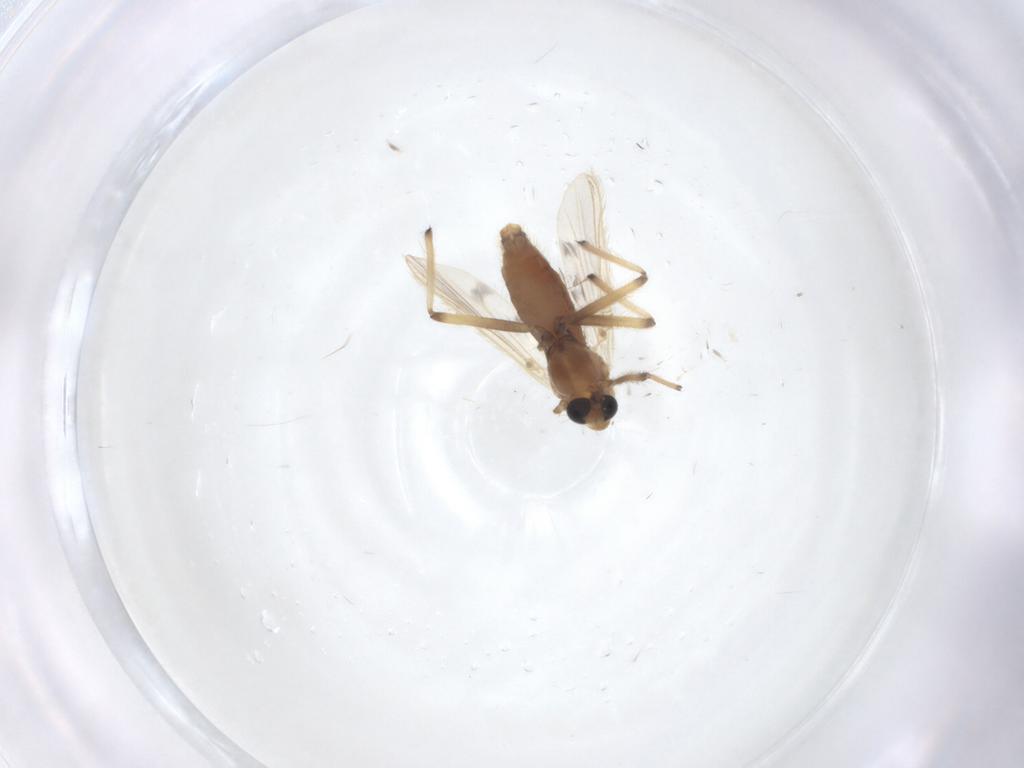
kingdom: Animalia
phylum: Arthropoda
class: Insecta
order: Diptera
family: Chironomidae
